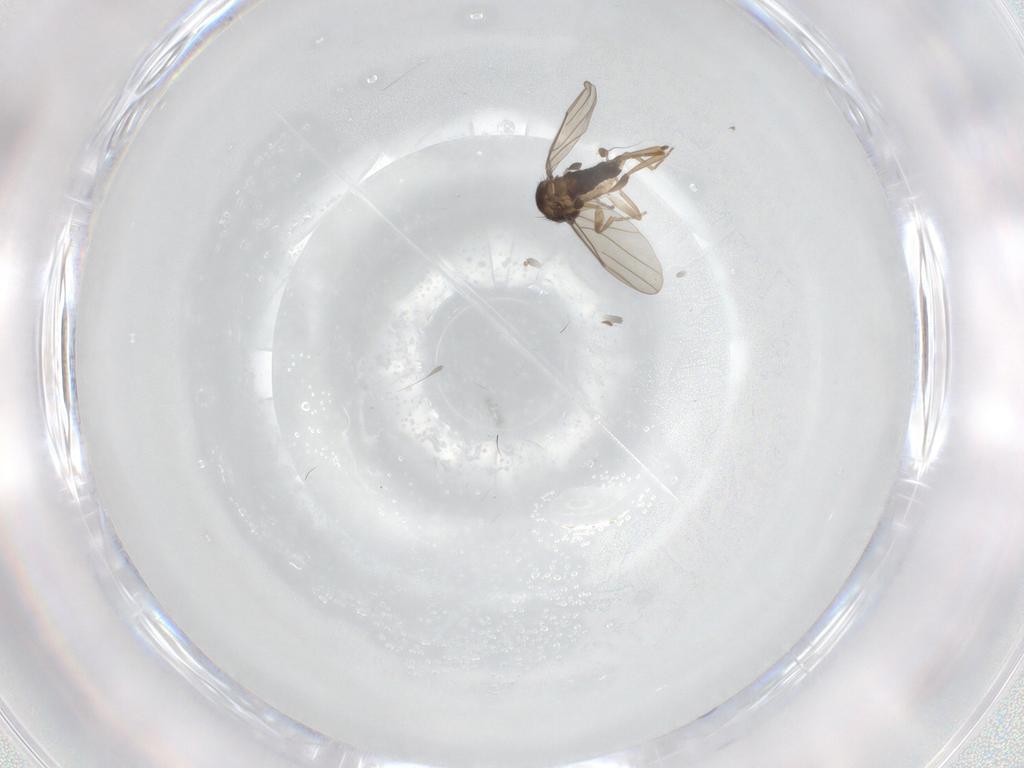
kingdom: Animalia
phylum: Arthropoda
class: Insecta
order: Diptera
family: Phoridae
